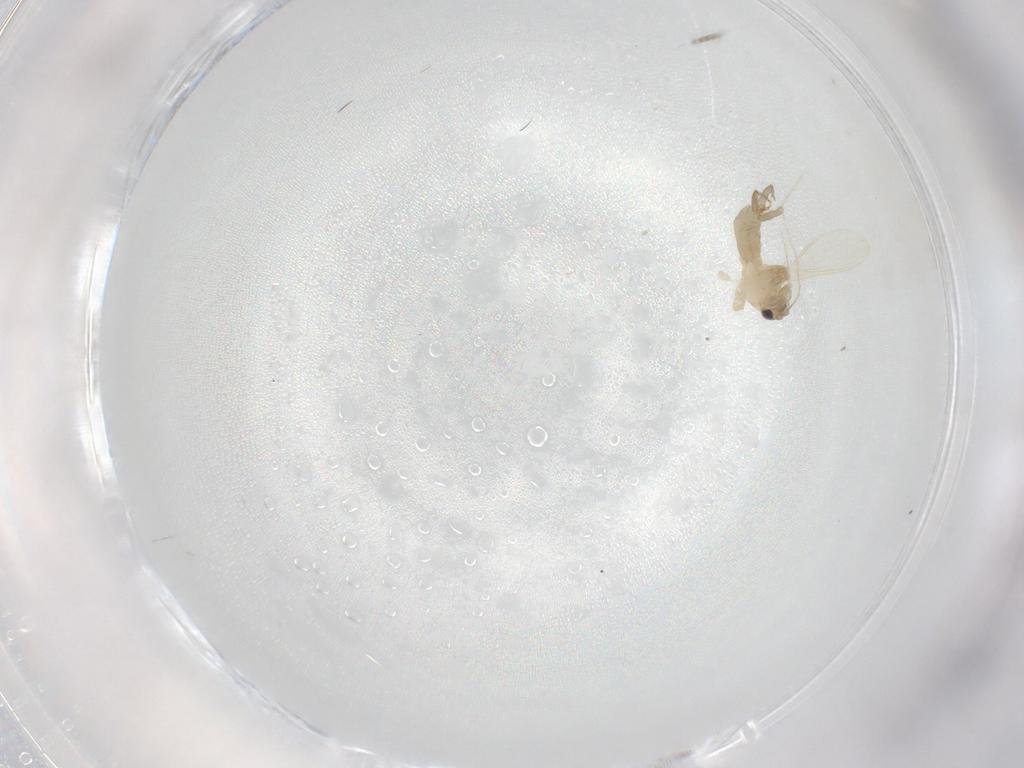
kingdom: Animalia
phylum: Arthropoda
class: Insecta
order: Diptera
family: Psychodidae
